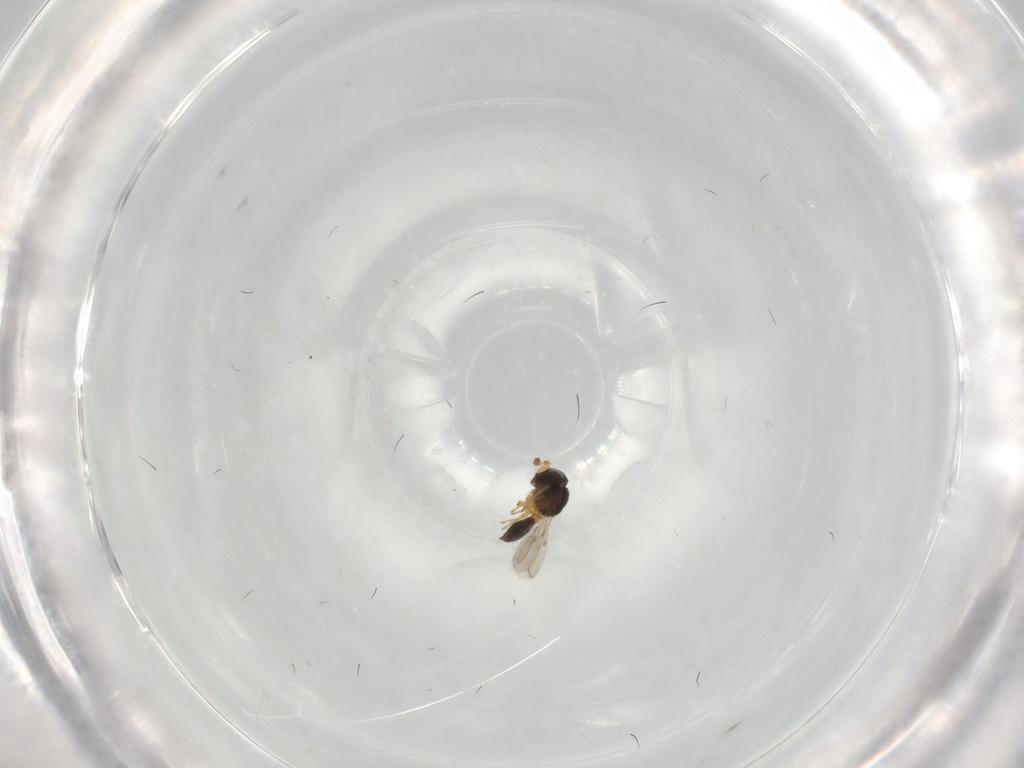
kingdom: Animalia
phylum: Arthropoda
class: Insecta
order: Hymenoptera
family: Scelionidae
